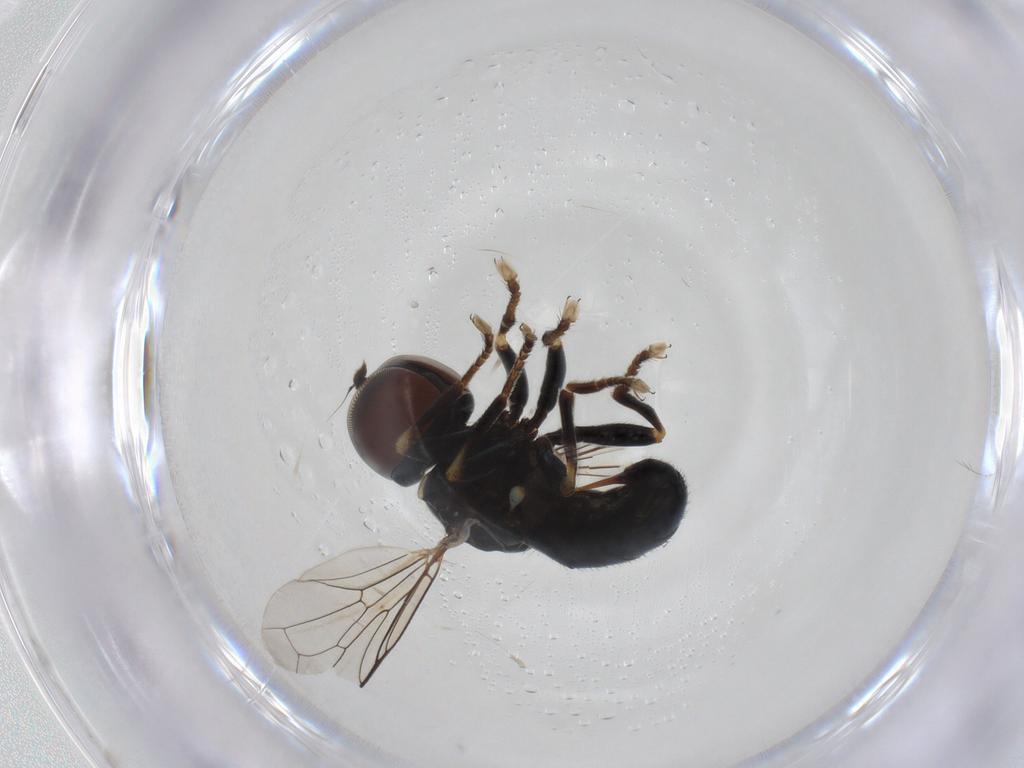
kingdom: Animalia
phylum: Arthropoda
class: Insecta
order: Diptera
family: Pipunculidae
